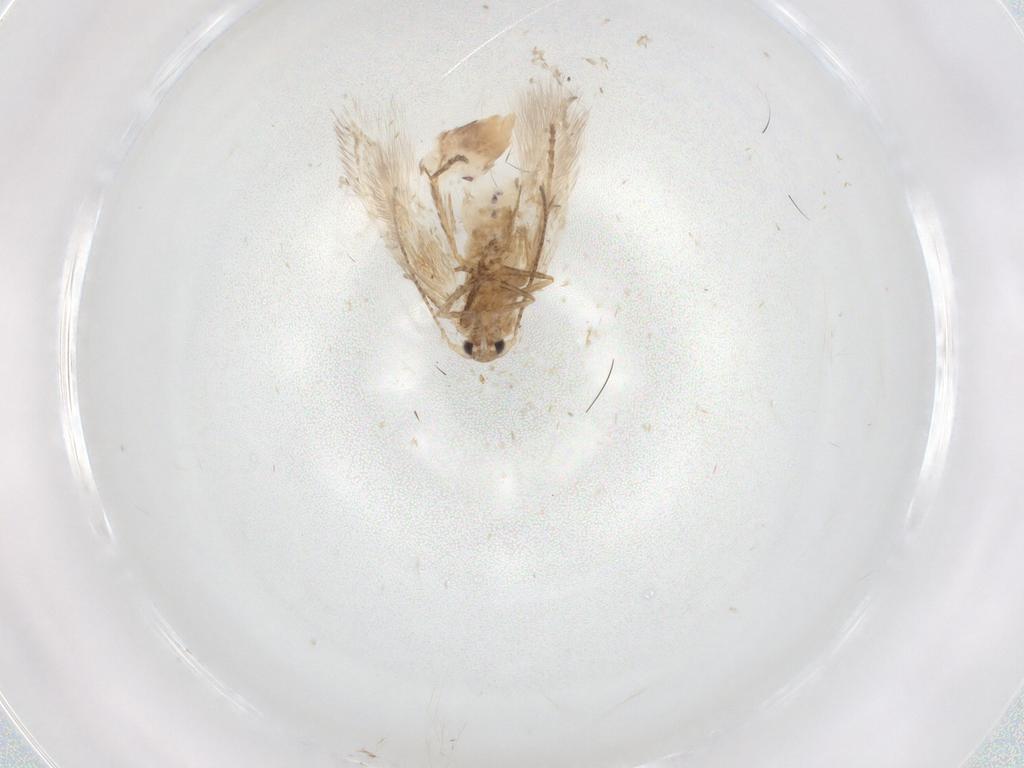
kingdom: Animalia
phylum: Arthropoda
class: Insecta
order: Lepidoptera
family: Bucculatricidae
